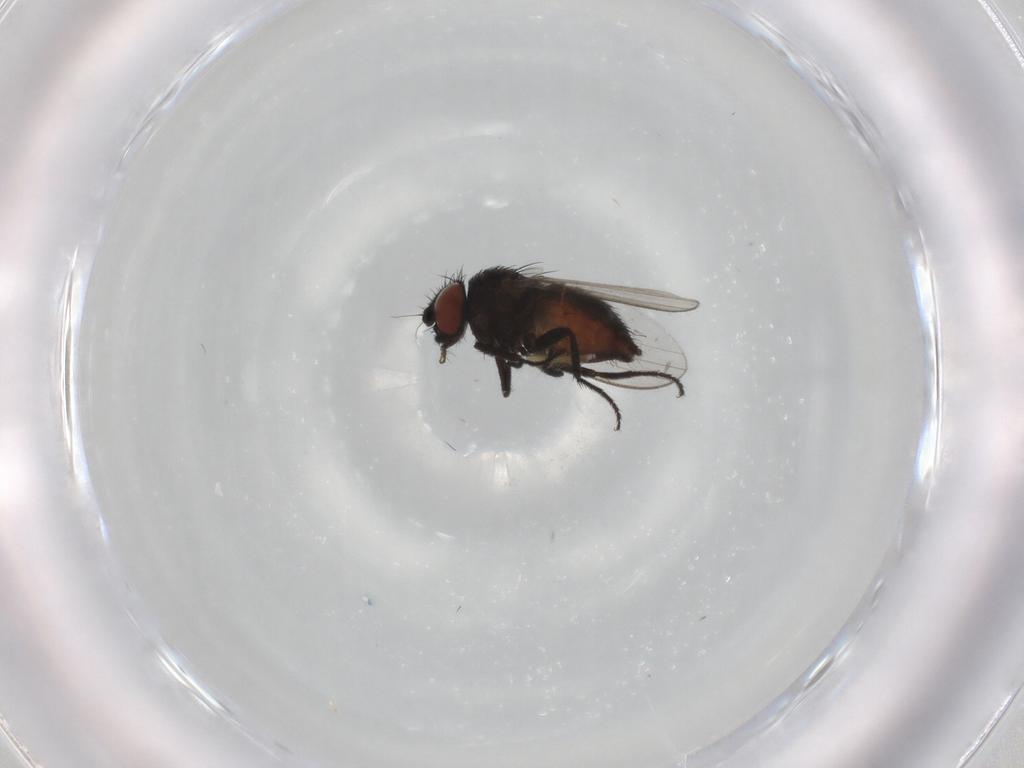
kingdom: Animalia
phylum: Arthropoda
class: Insecta
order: Diptera
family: Milichiidae
